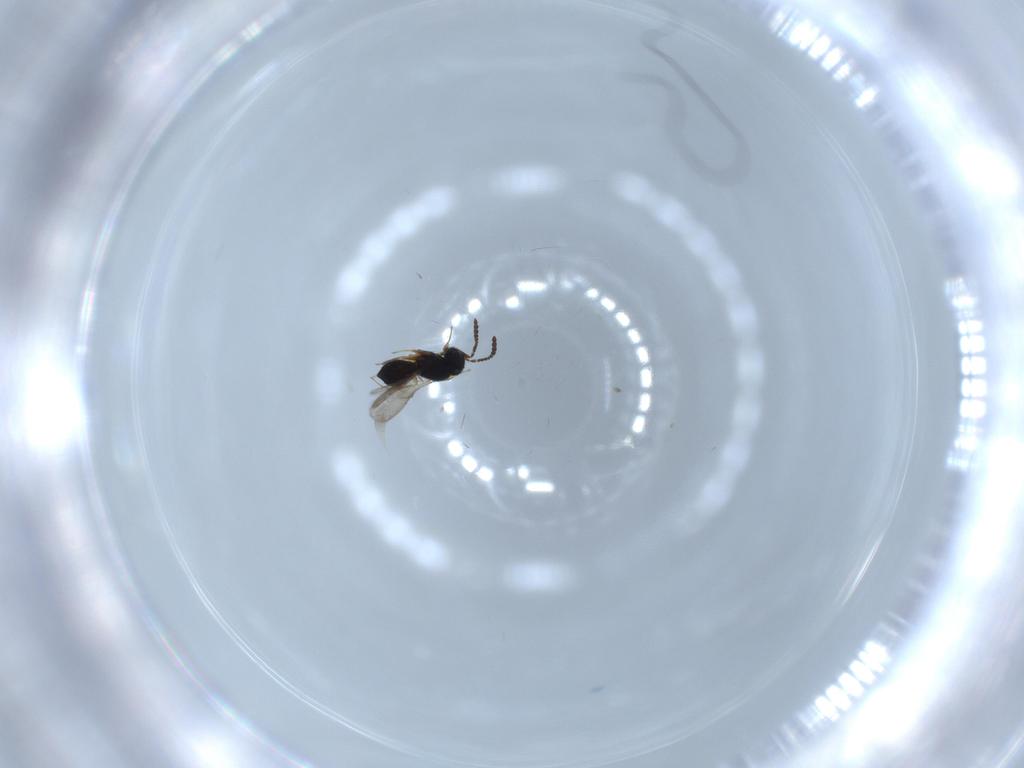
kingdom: Animalia
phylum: Arthropoda
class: Insecta
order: Hymenoptera
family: Scelionidae
